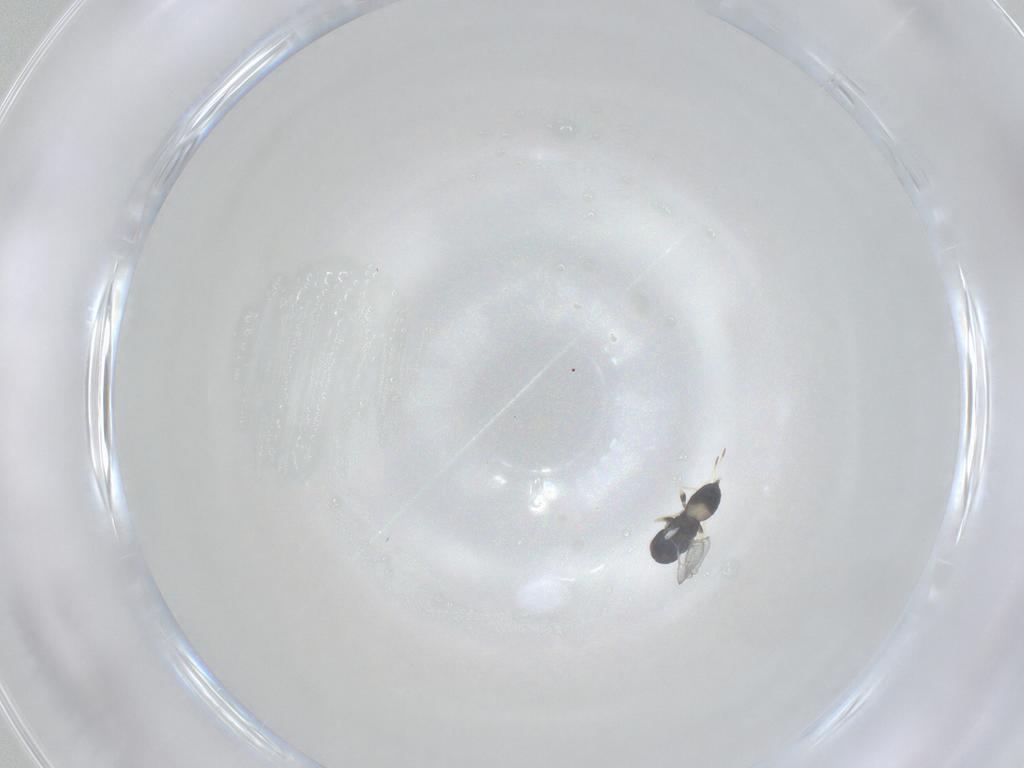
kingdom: Animalia
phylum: Arthropoda
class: Insecta
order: Hymenoptera
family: Eulophidae
